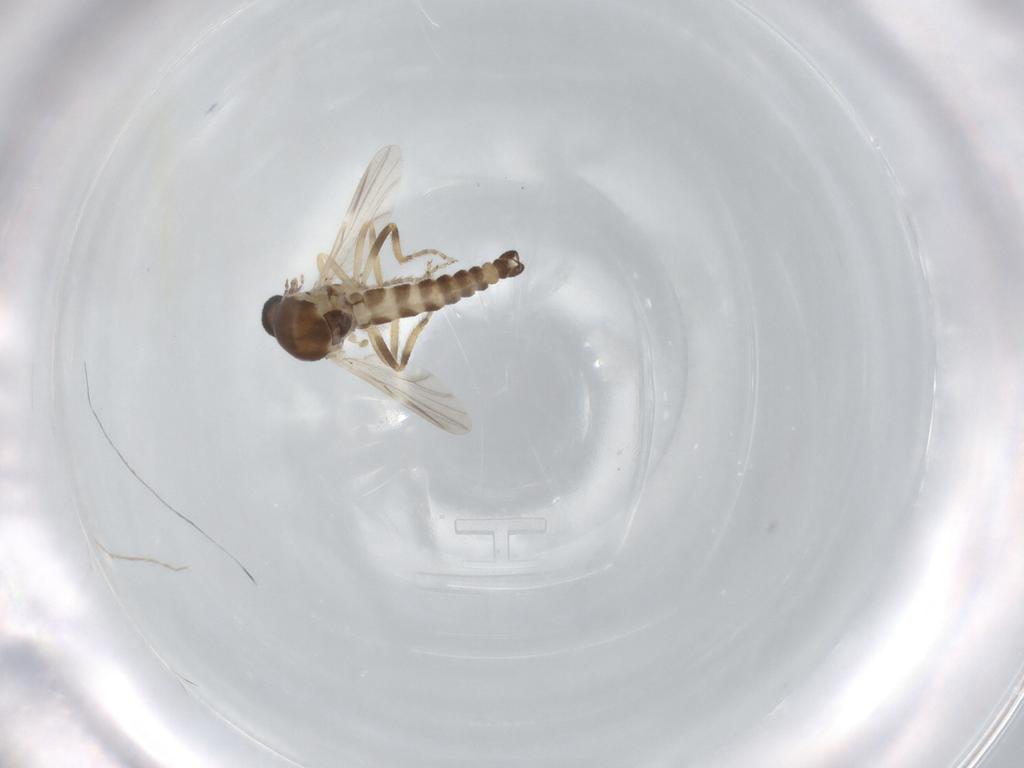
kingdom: Animalia
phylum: Arthropoda
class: Insecta
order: Diptera
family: Ceratopogonidae
